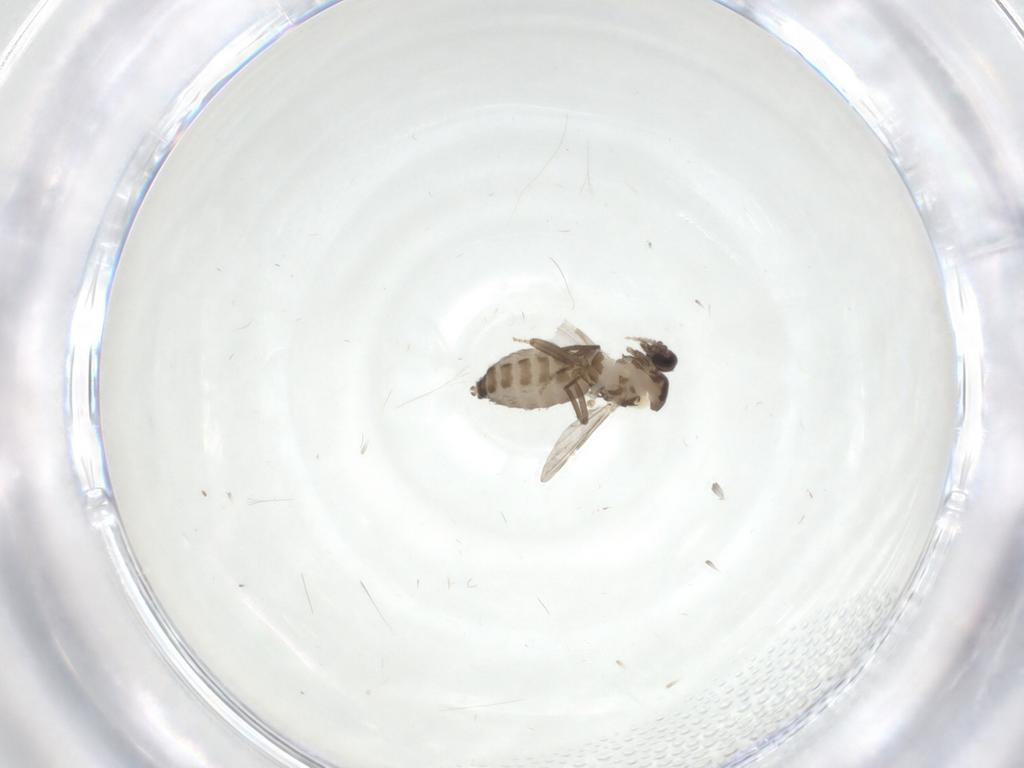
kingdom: Animalia
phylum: Arthropoda
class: Insecta
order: Diptera
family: Ceratopogonidae
